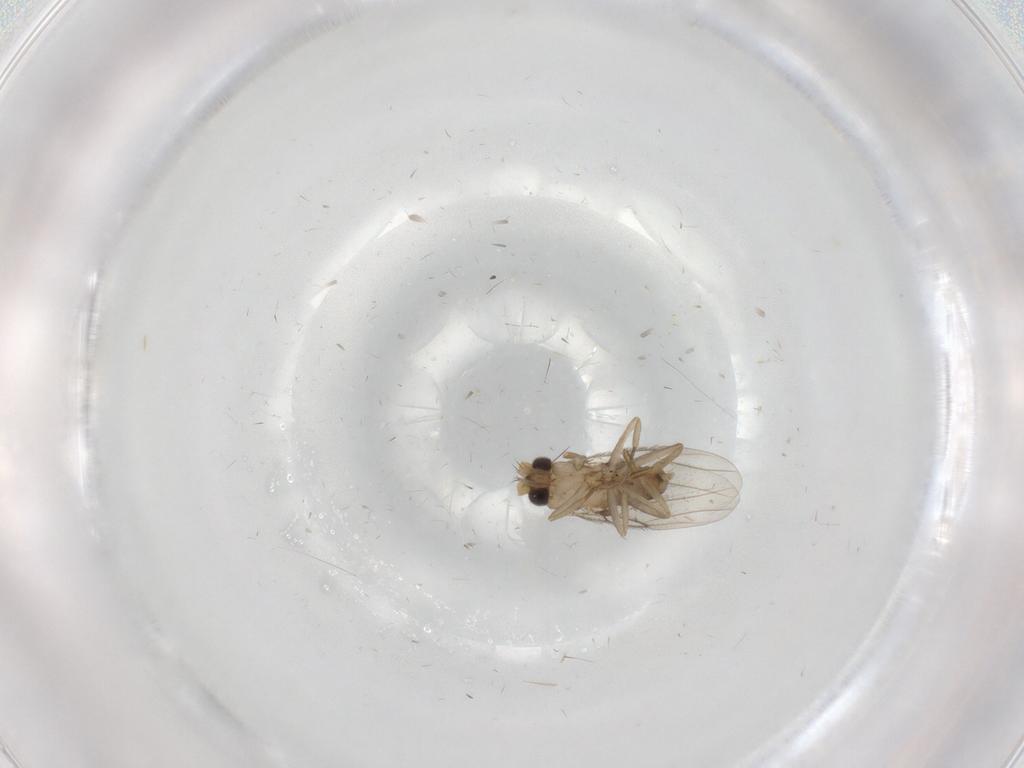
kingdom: Animalia
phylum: Arthropoda
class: Insecta
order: Diptera
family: Phoridae
